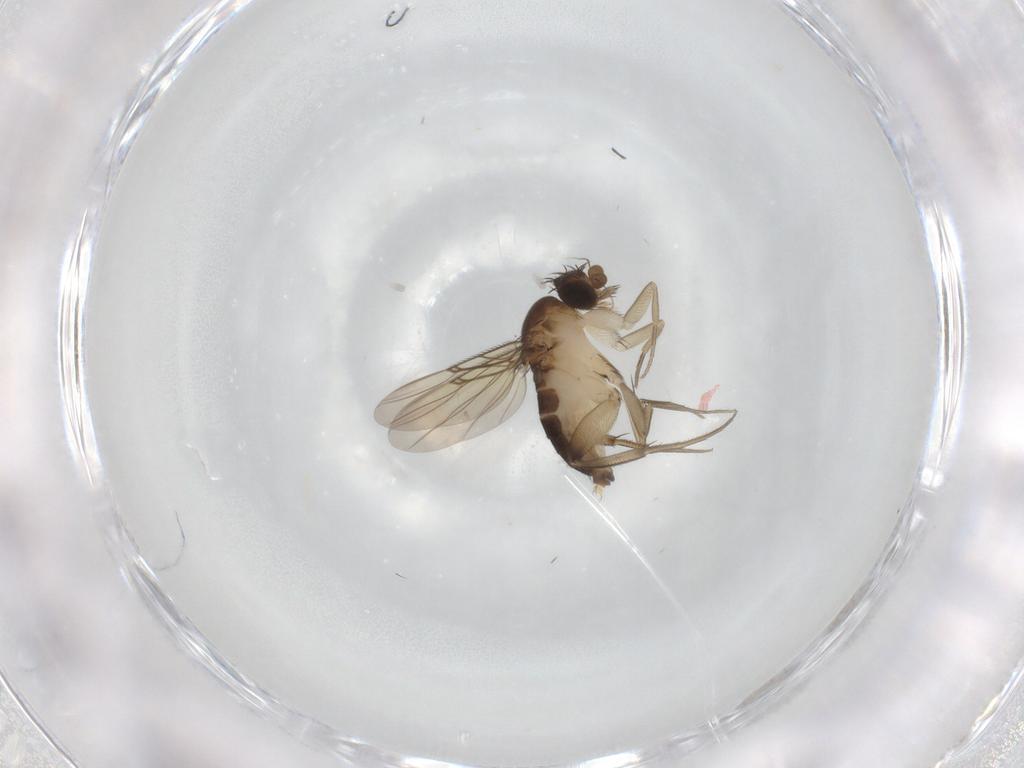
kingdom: Animalia
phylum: Arthropoda
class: Insecta
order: Diptera
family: Phoridae
